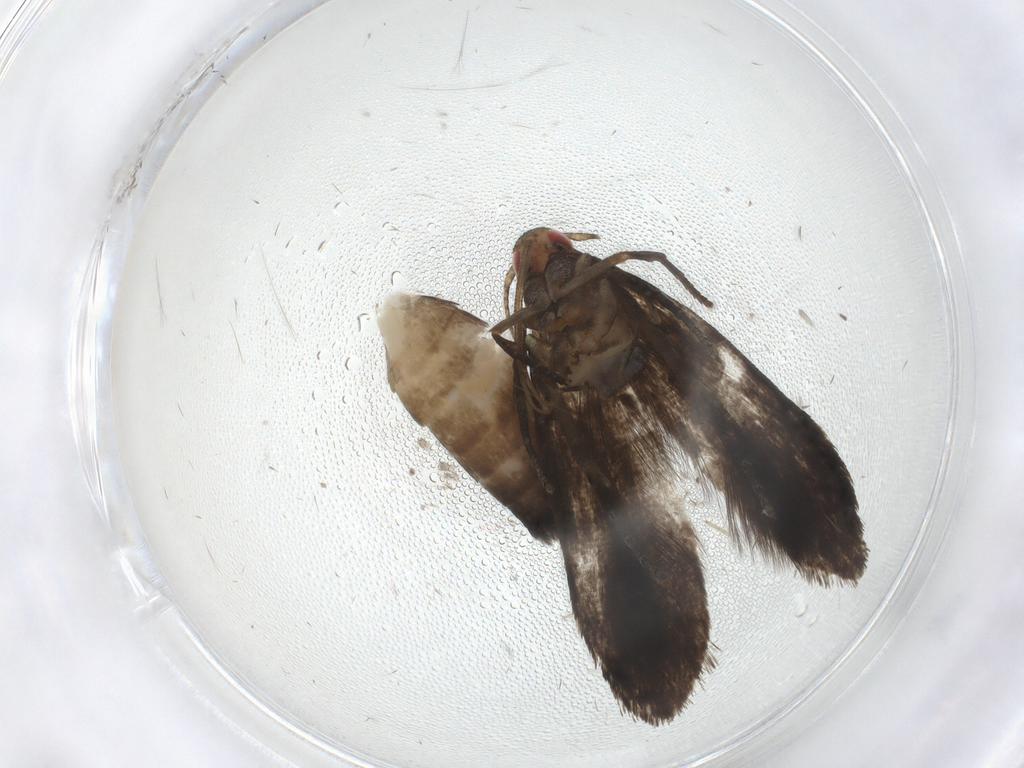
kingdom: Animalia
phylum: Arthropoda
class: Insecta
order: Lepidoptera
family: Gelechiidae
